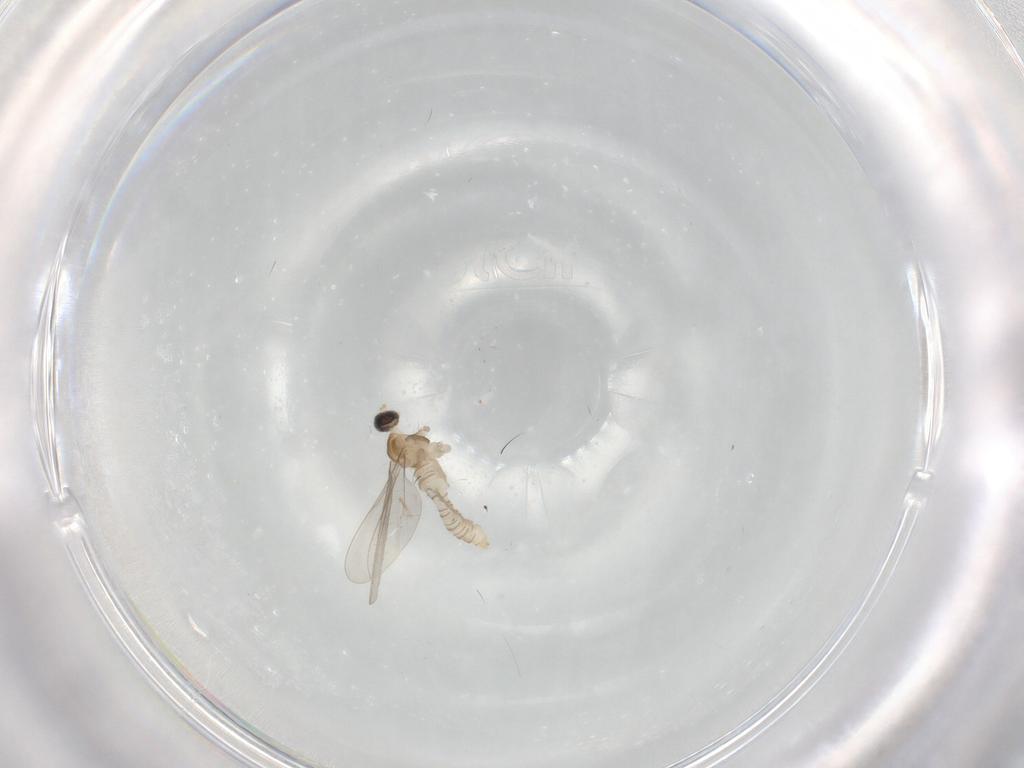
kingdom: Animalia
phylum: Arthropoda
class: Insecta
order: Diptera
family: Cecidomyiidae
